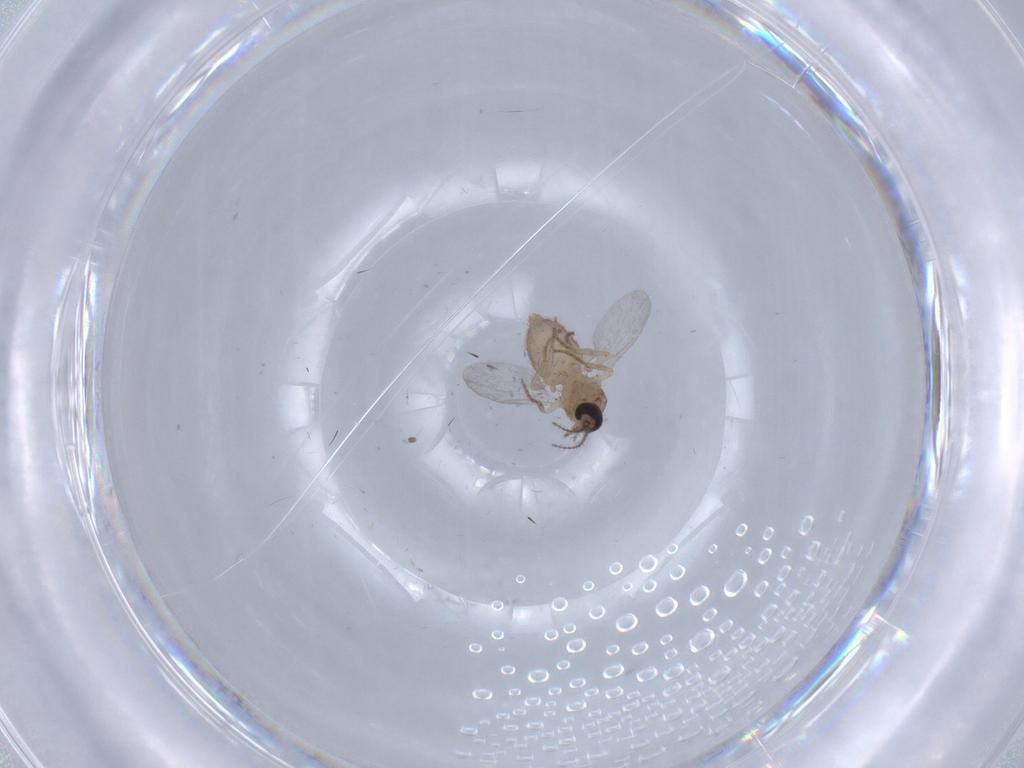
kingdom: Animalia
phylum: Arthropoda
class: Insecta
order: Diptera
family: Ceratopogonidae
